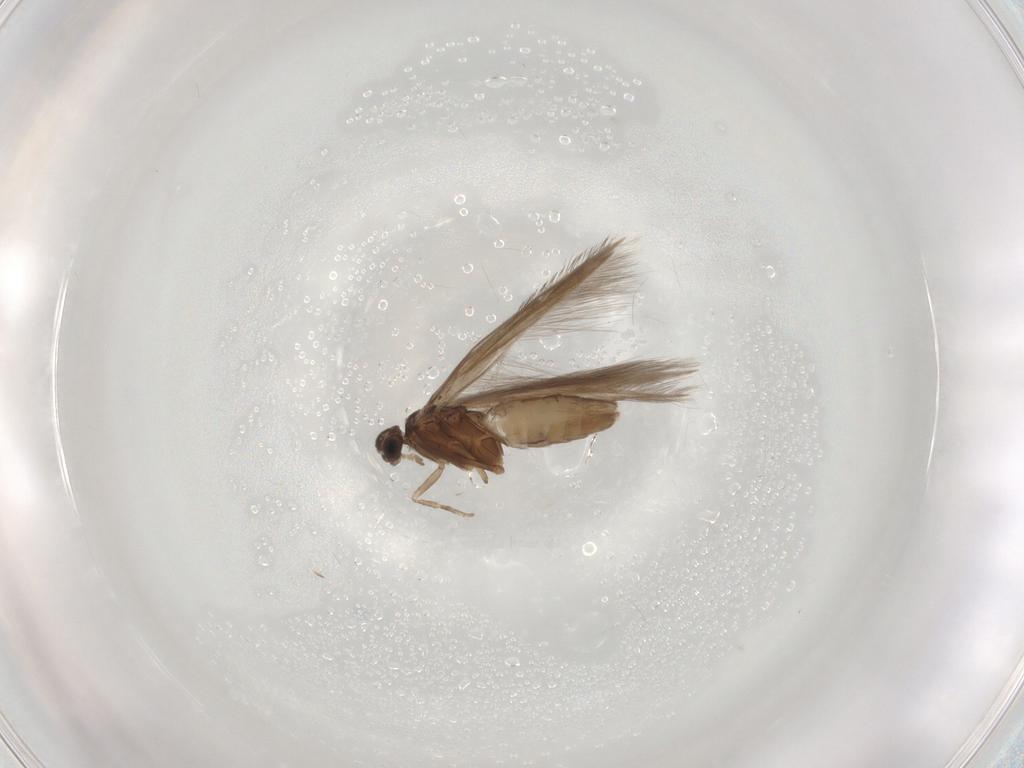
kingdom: Animalia
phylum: Arthropoda
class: Insecta
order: Trichoptera
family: Hydroptilidae
